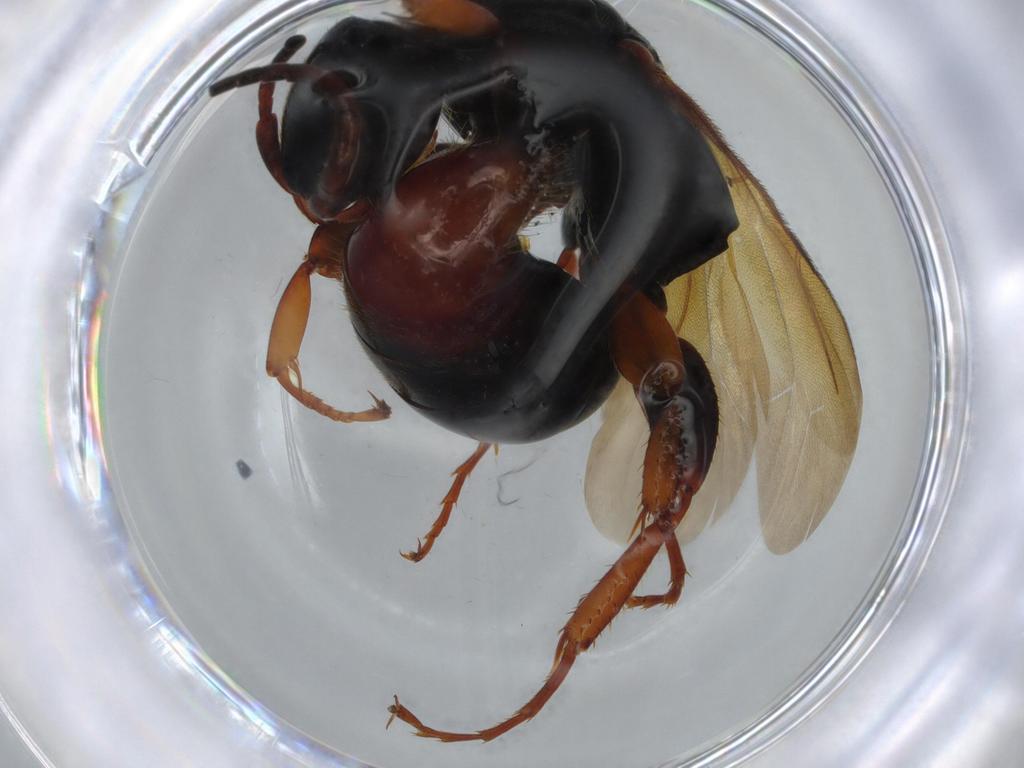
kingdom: Animalia
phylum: Arthropoda
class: Insecta
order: Hymenoptera
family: Bethylidae
